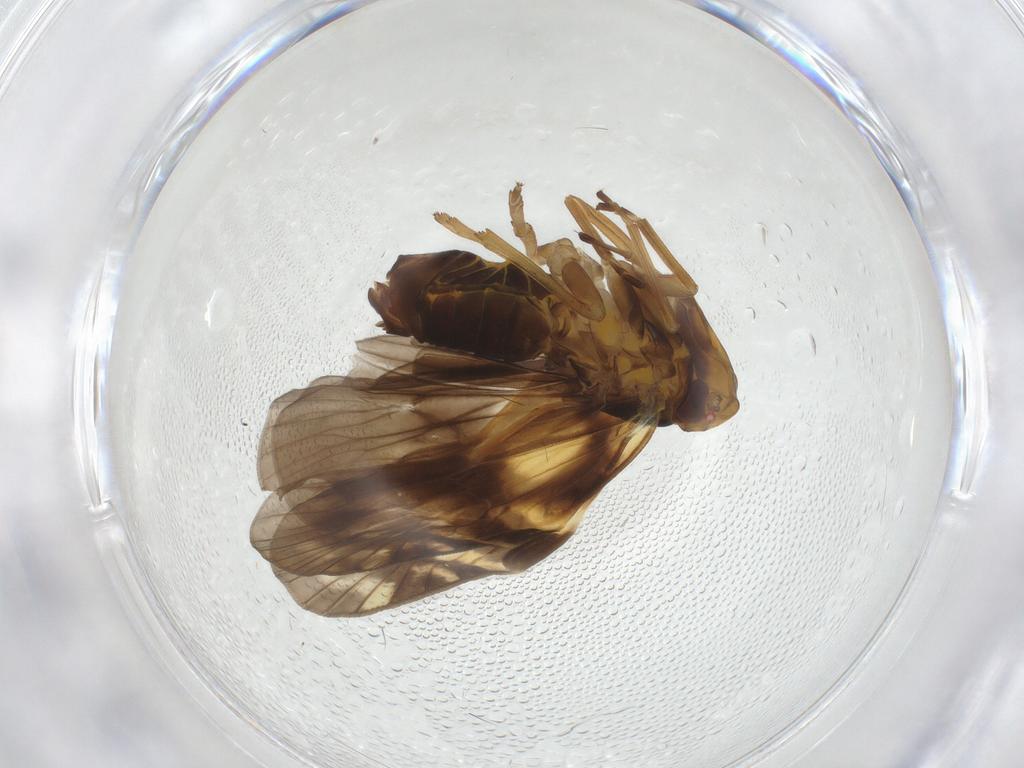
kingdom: Animalia
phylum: Arthropoda
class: Insecta
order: Hemiptera
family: Cixiidae
